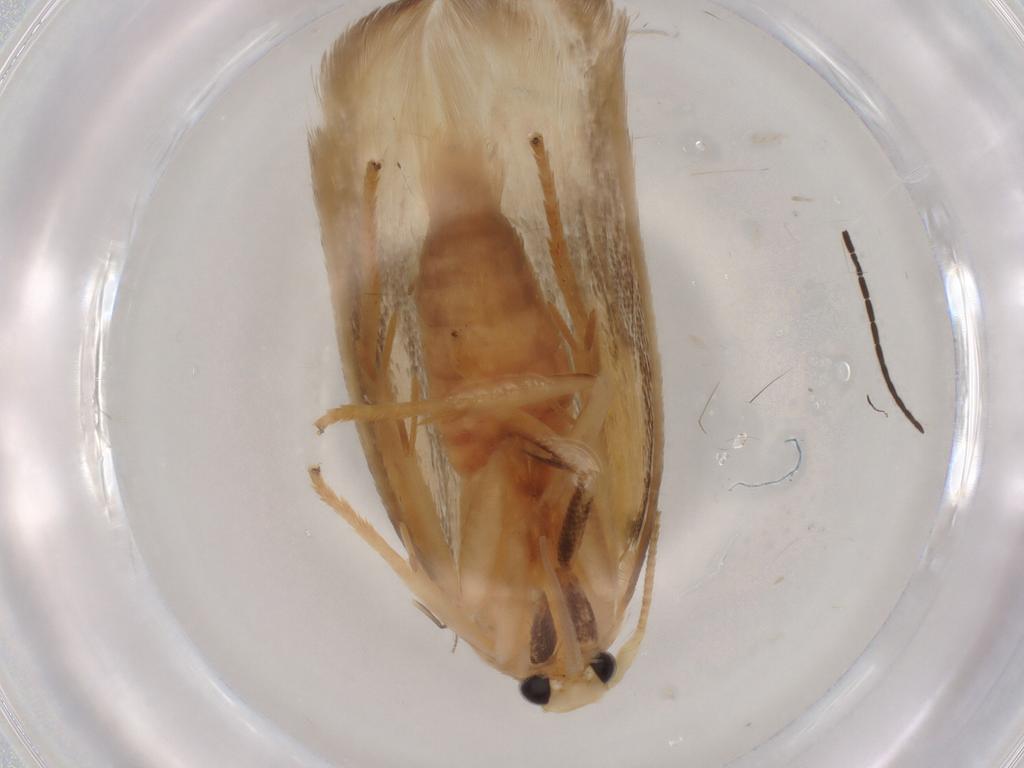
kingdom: Animalia
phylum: Arthropoda
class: Insecta
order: Lepidoptera
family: Geometridae
